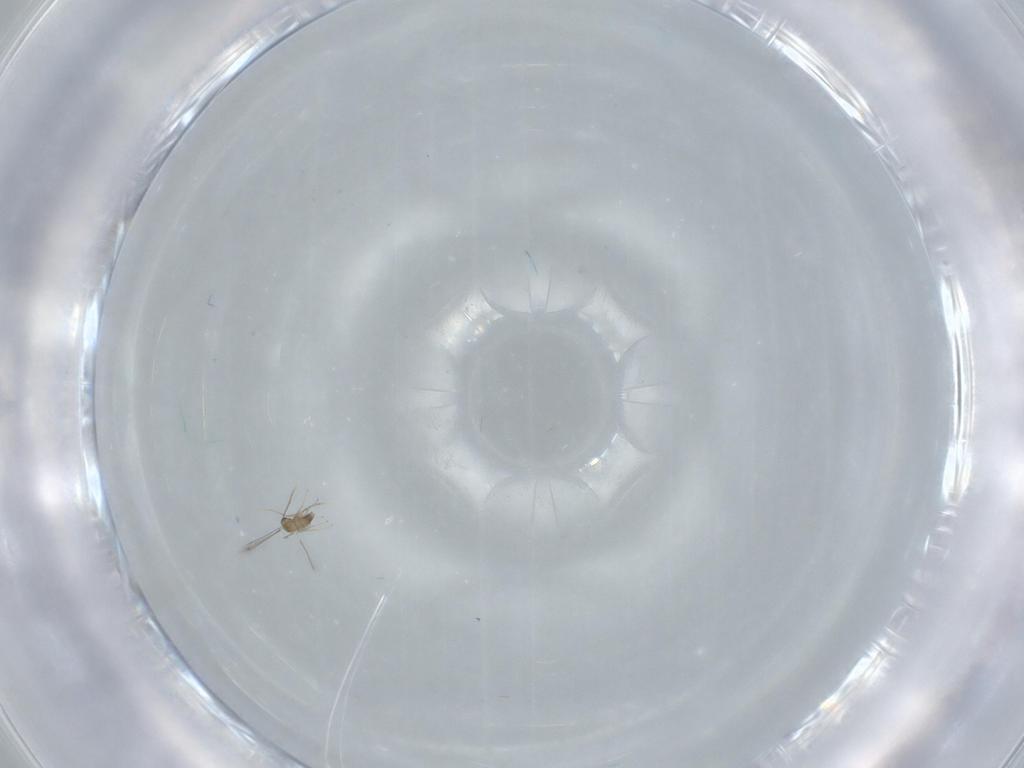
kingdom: Animalia
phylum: Arthropoda
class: Insecta
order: Hymenoptera
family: Mymaridae
